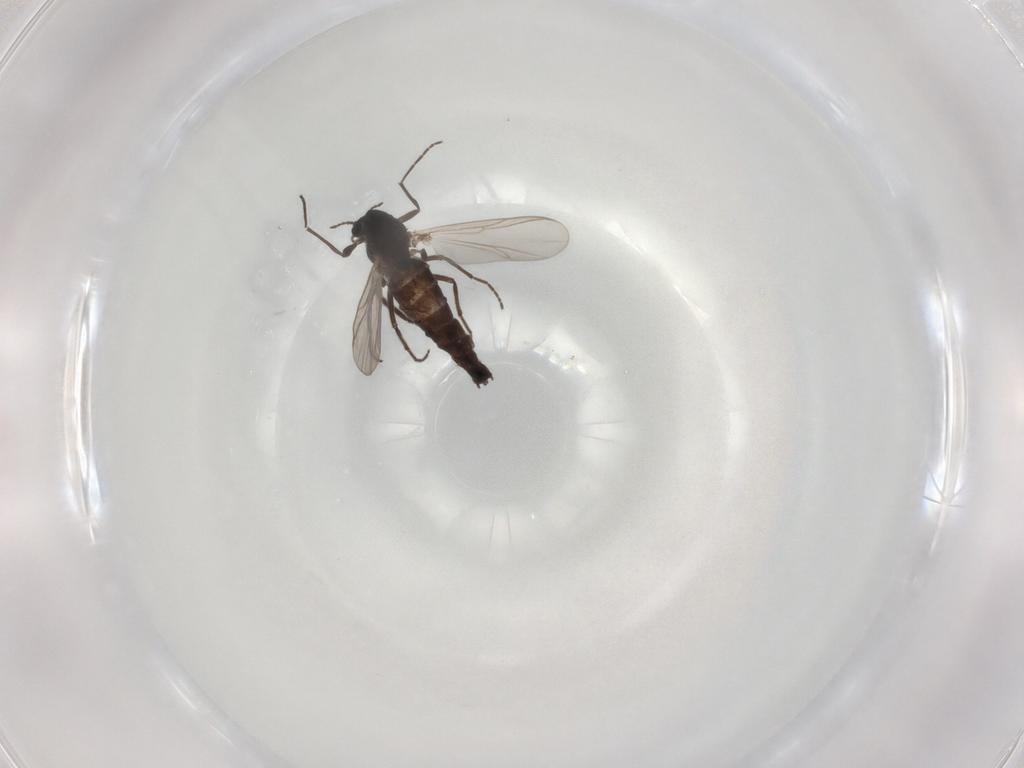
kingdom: Animalia
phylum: Arthropoda
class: Insecta
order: Diptera
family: Chironomidae
